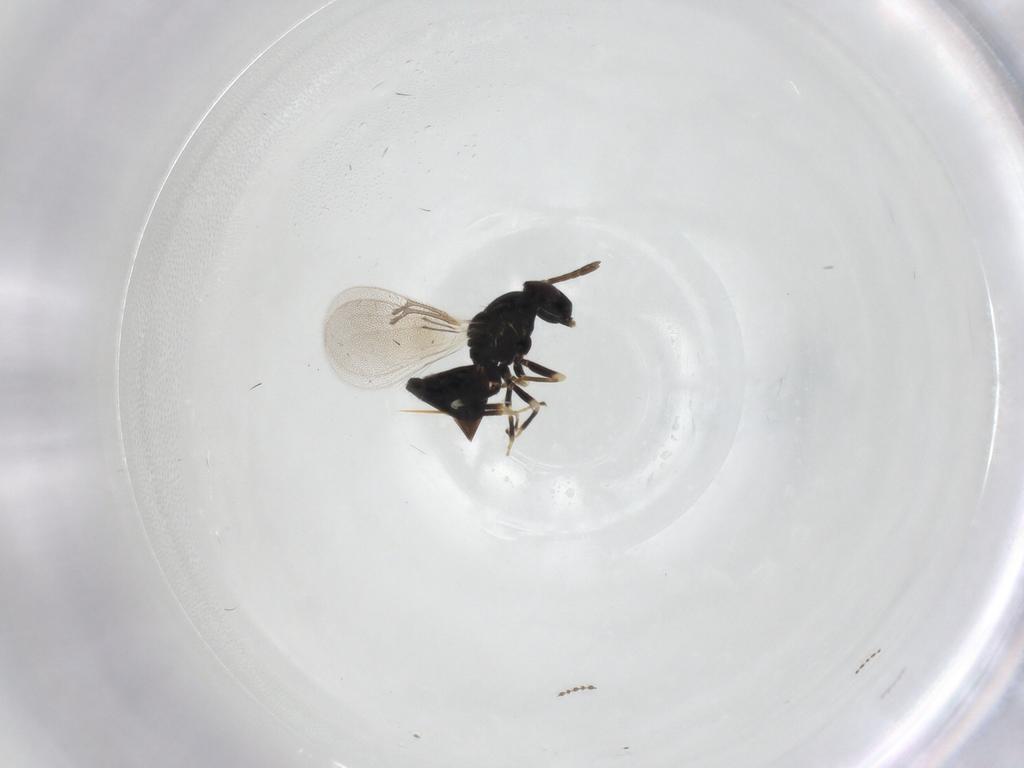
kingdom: Animalia
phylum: Arthropoda
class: Insecta
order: Hymenoptera
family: Eulophidae
